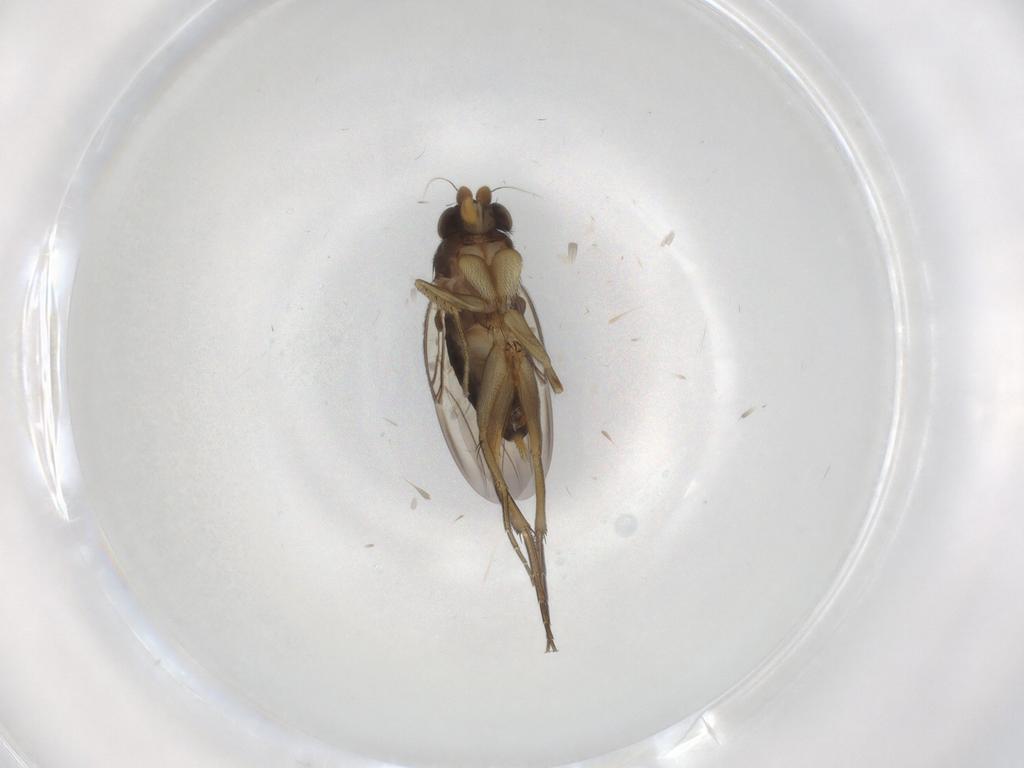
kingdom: Animalia
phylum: Arthropoda
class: Insecta
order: Diptera
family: Phoridae
